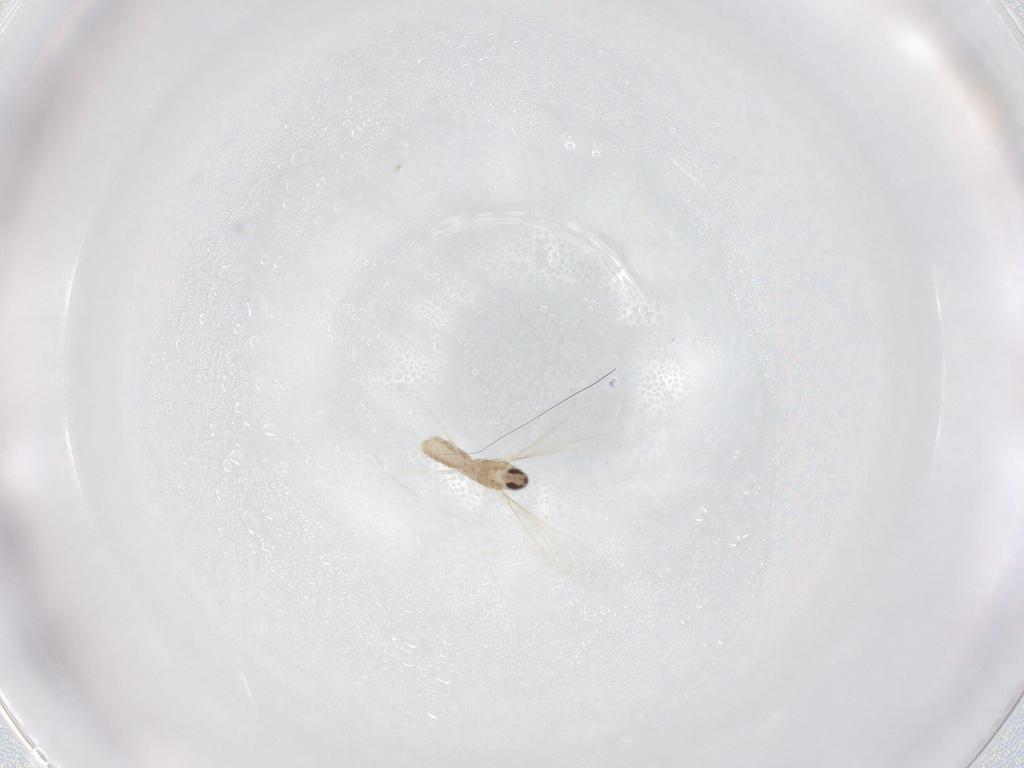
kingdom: Animalia
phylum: Arthropoda
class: Insecta
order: Diptera
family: Cecidomyiidae
